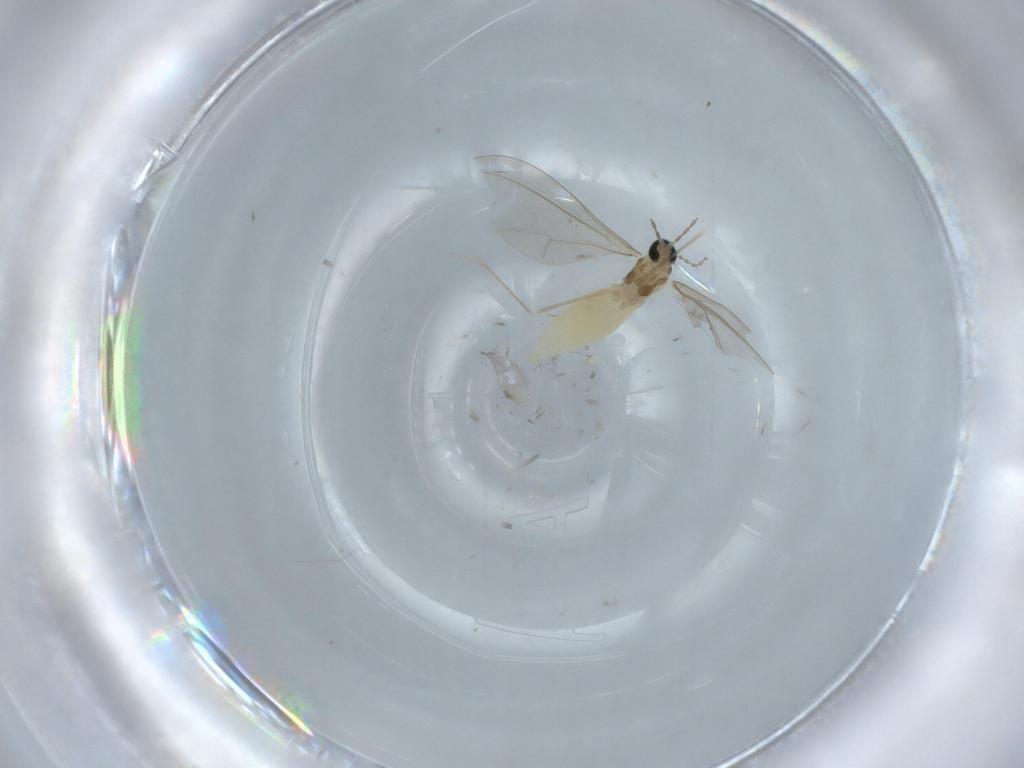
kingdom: Animalia
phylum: Arthropoda
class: Insecta
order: Diptera
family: Cecidomyiidae
